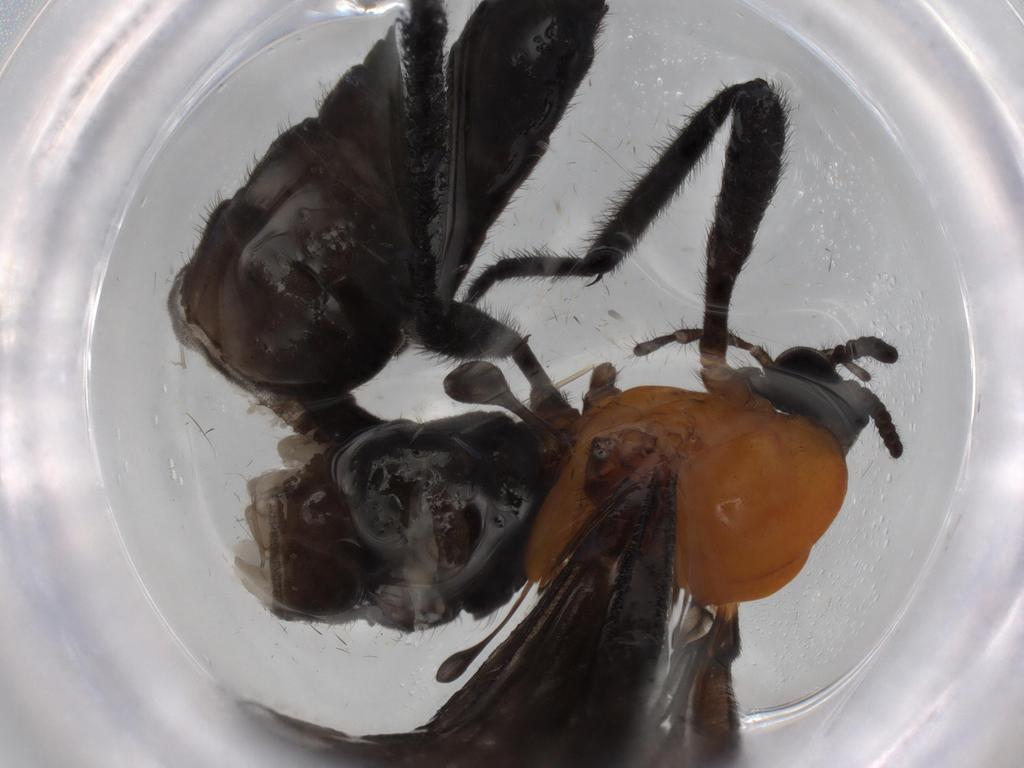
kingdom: Animalia
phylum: Arthropoda
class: Insecta
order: Diptera
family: Bibionidae
